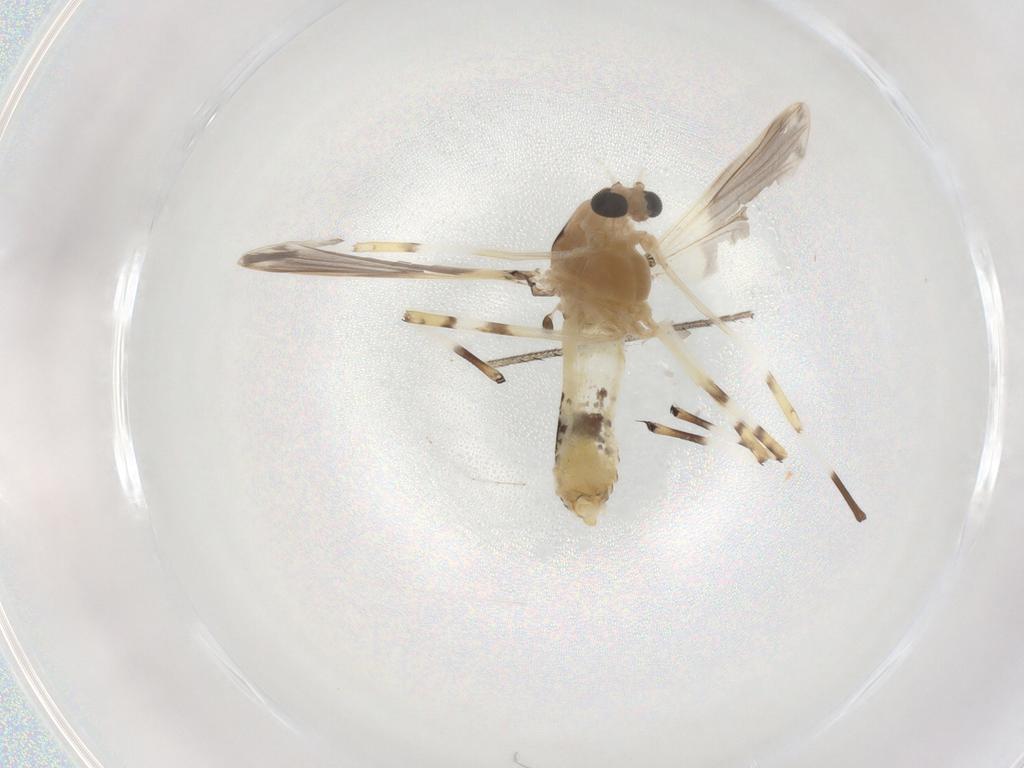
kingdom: Animalia
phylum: Arthropoda
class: Insecta
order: Diptera
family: Chironomidae
